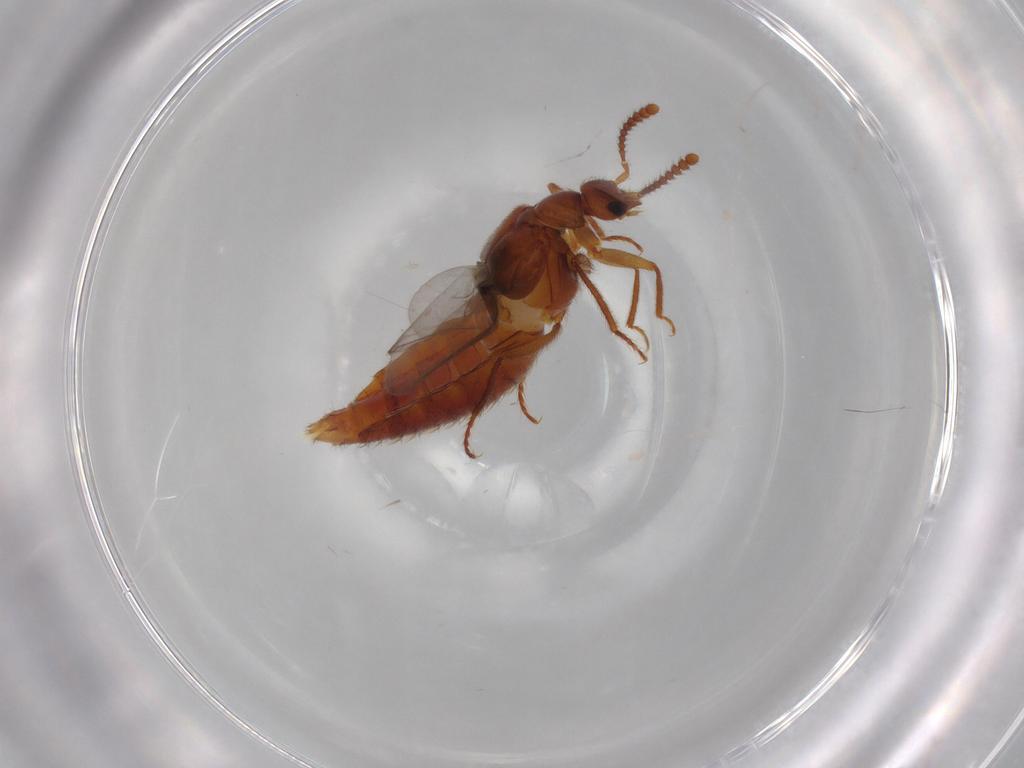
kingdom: Animalia
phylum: Arthropoda
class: Insecta
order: Coleoptera
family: Staphylinidae
